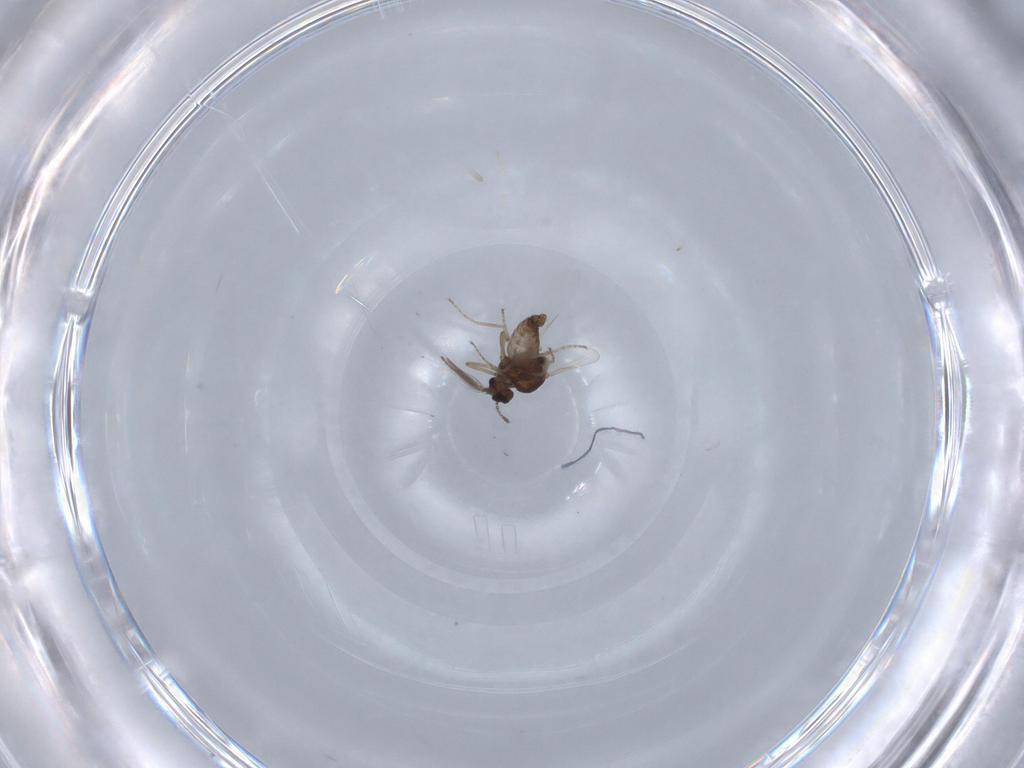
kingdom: Animalia
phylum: Arthropoda
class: Insecta
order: Diptera
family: Ceratopogonidae
